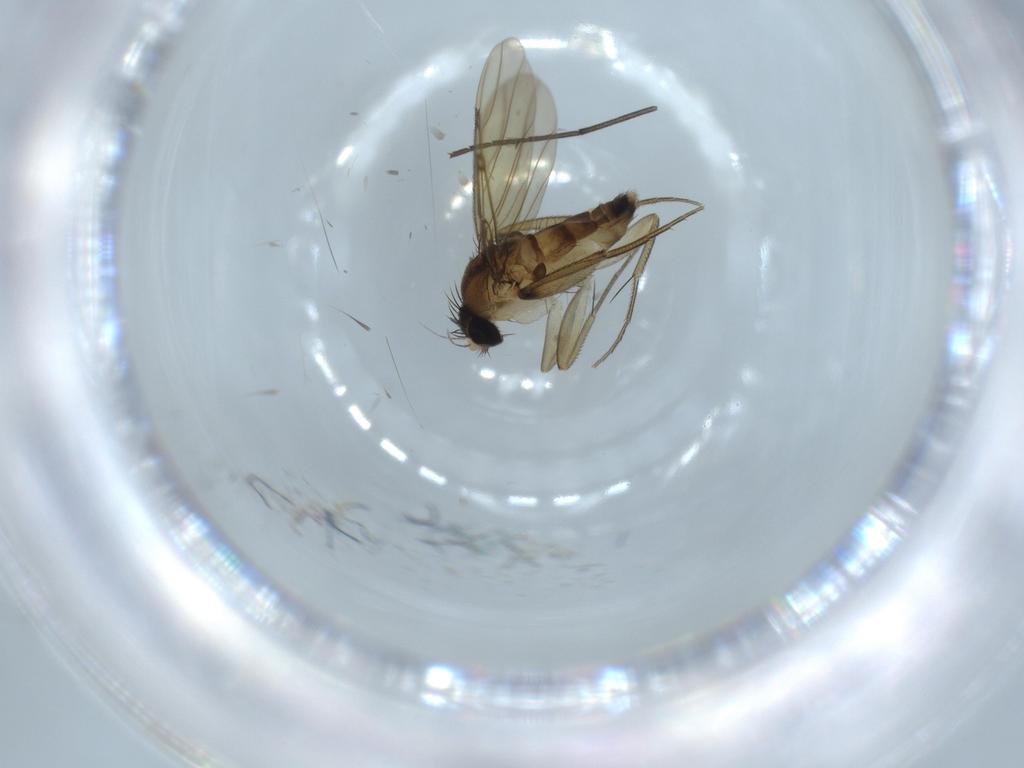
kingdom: Animalia
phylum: Arthropoda
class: Insecta
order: Diptera
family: Phoridae
